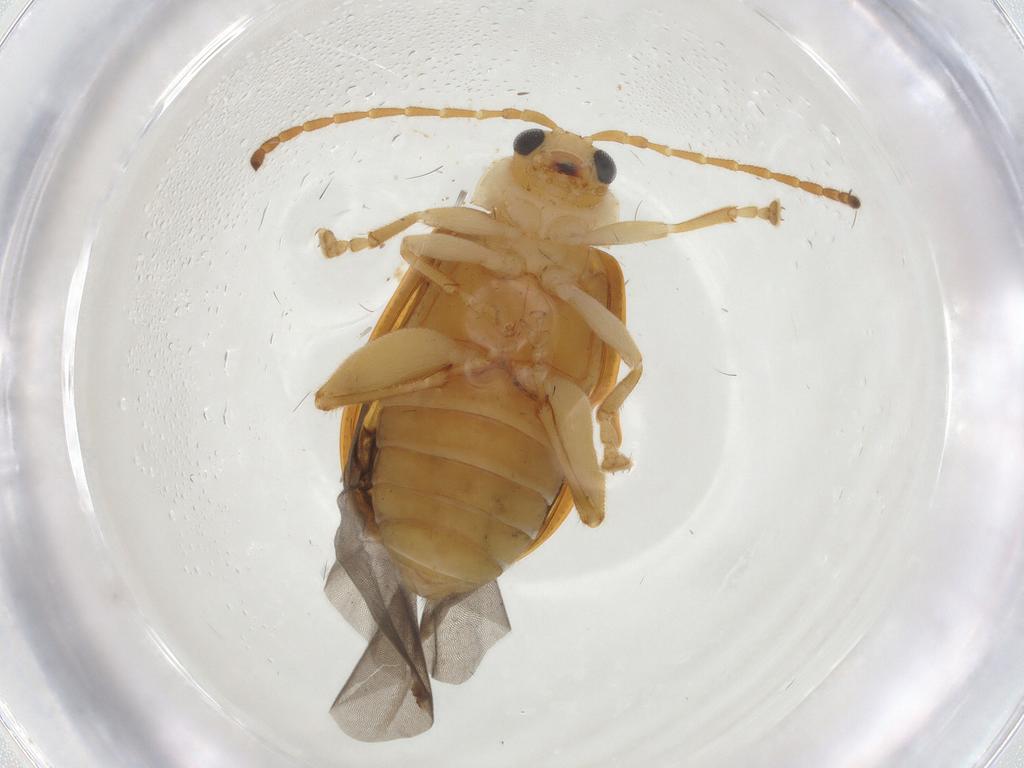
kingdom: Animalia
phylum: Arthropoda
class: Insecta
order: Coleoptera
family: Chrysomelidae
